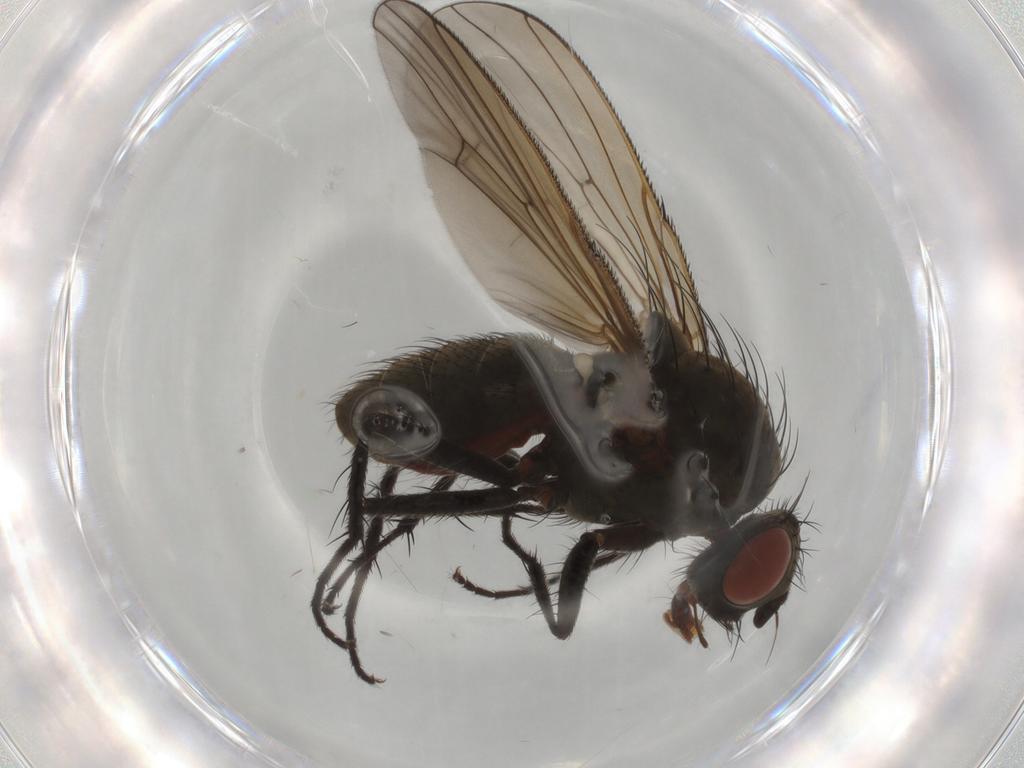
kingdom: Animalia
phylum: Arthropoda
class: Insecta
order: Diptera
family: Anthomyiidae
